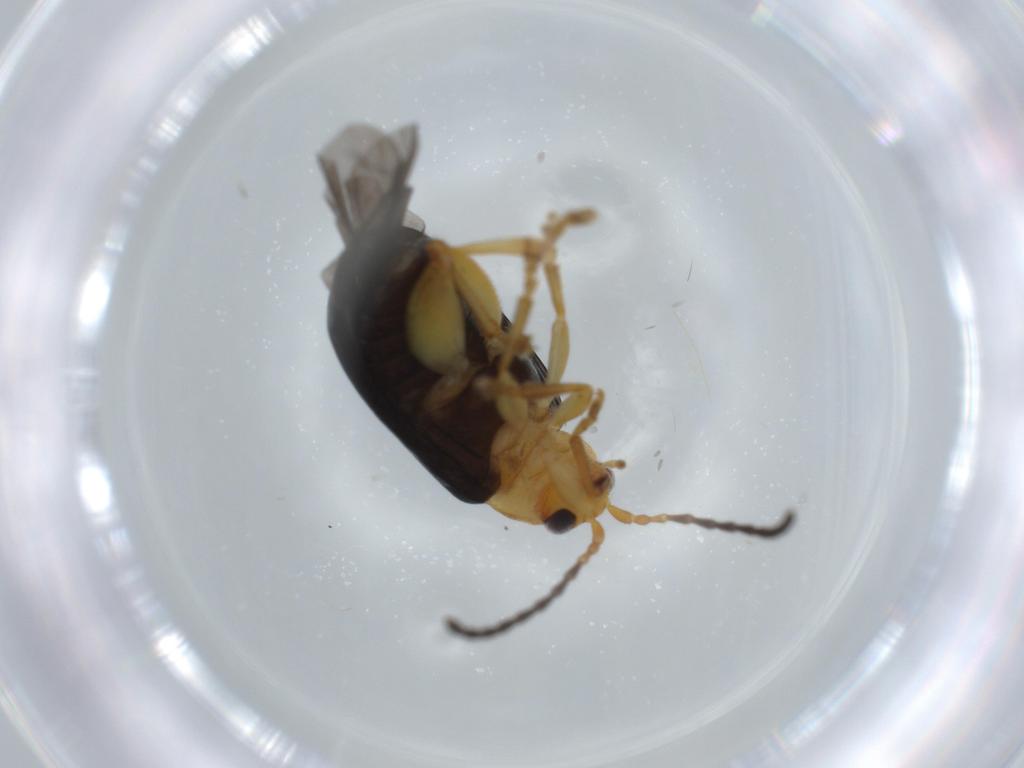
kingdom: Animalia
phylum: Arthropoda
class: Insecta
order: Coleoptera
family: Chrysomelidae
